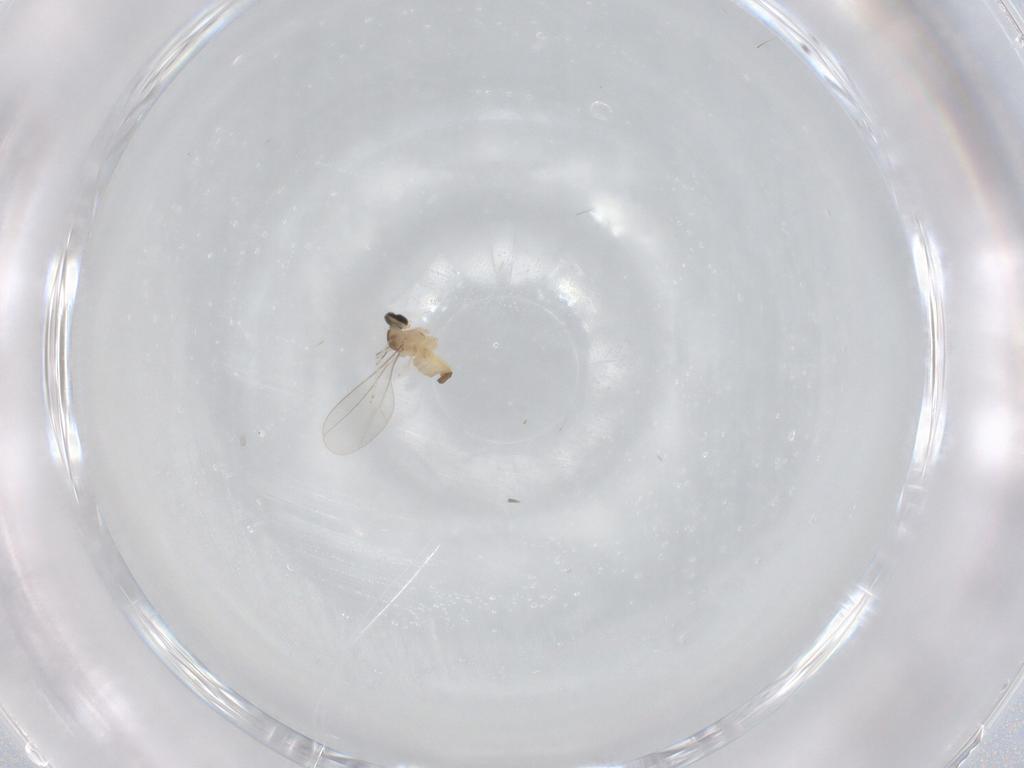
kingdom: Animalia
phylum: Arthropoda
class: Insecta
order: Diptera
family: Cecidomyiidae
